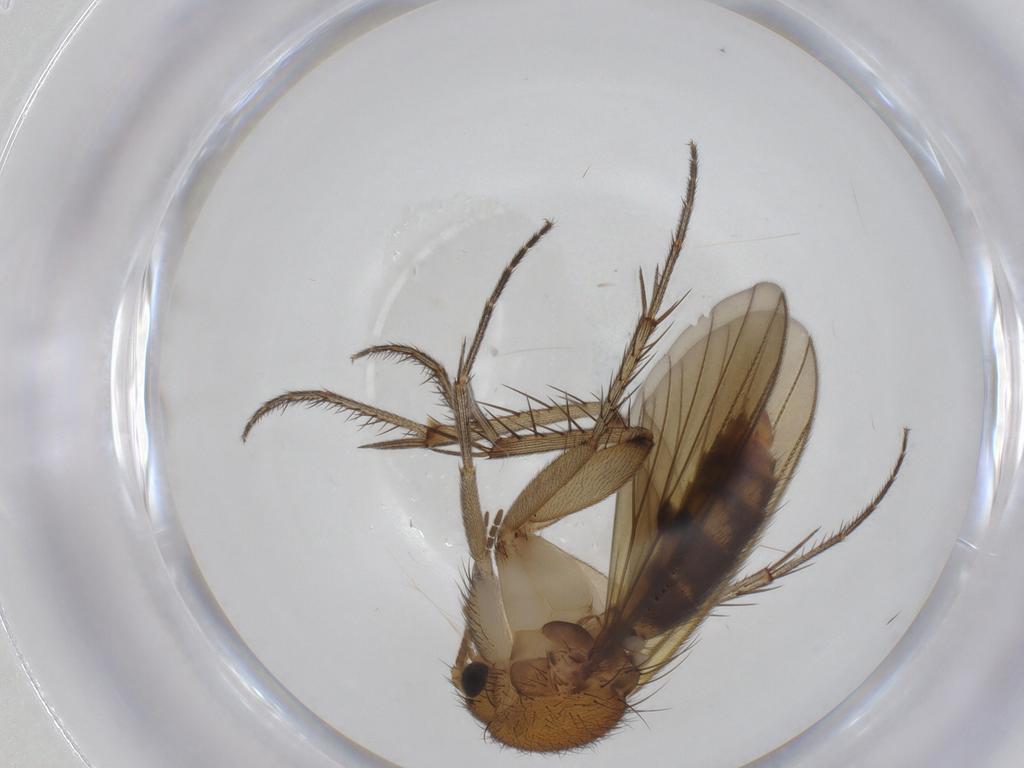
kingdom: Animalia
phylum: Arthropoda
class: Insecta
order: Diptera
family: Mycetophilidae
